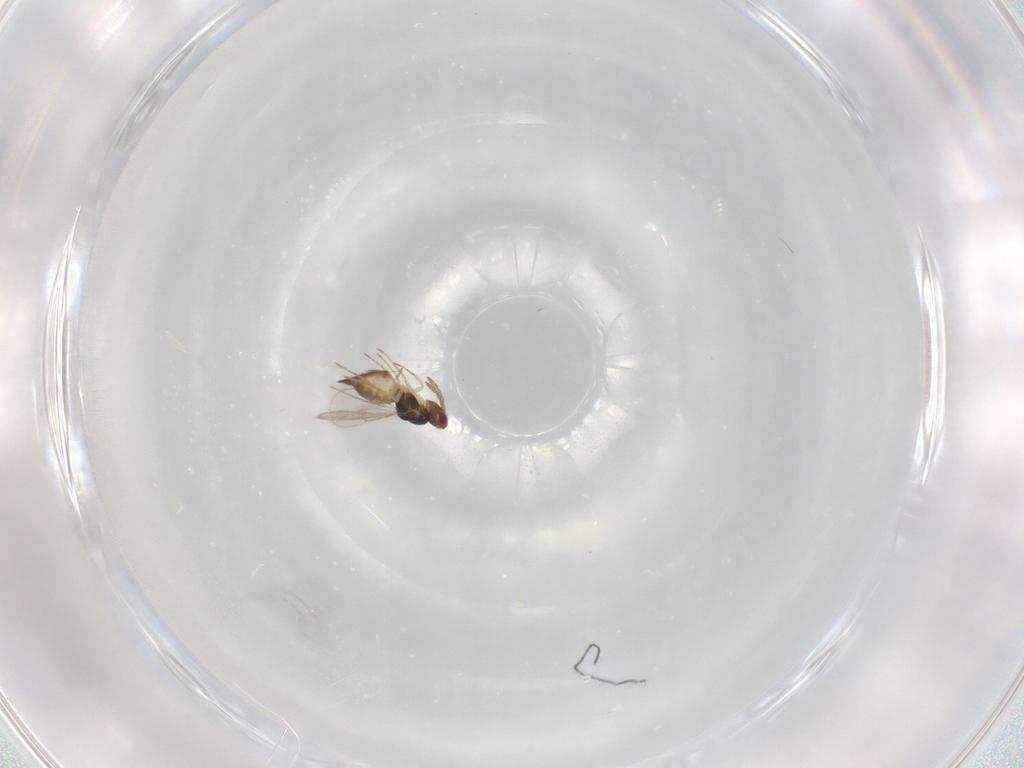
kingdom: Animalia
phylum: Arthropoda
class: Insecta
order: Hymenoptera
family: Eulophidae
